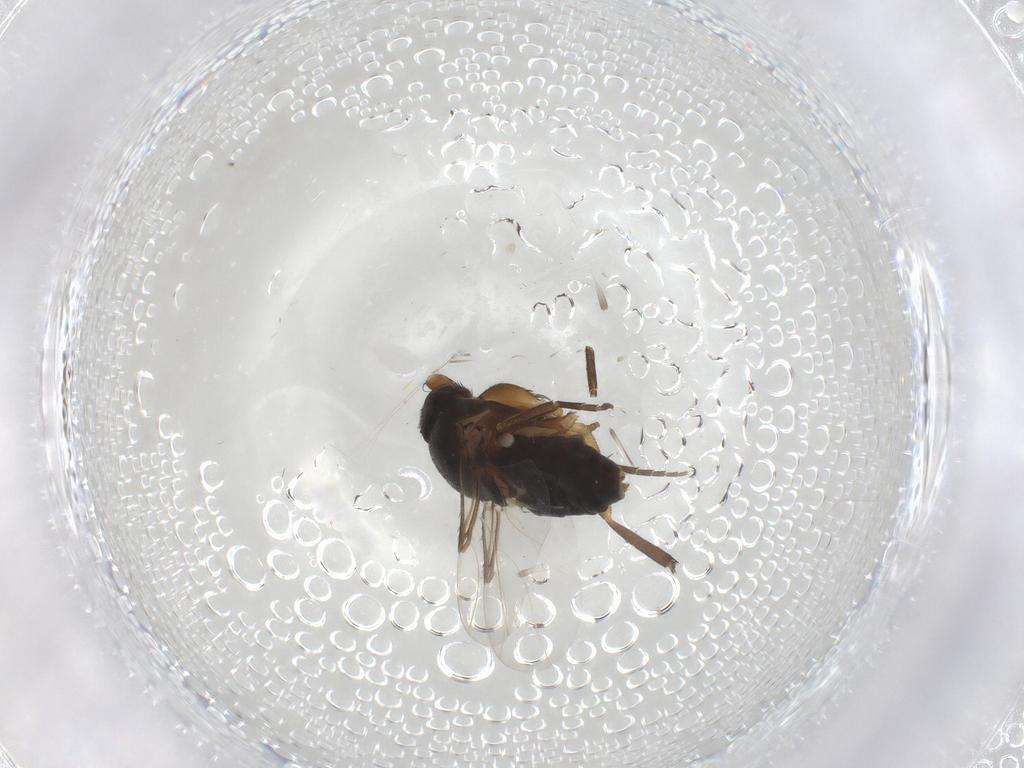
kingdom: Animalia
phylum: Arthropoda
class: Insecta
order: Diptera
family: Phoridae
